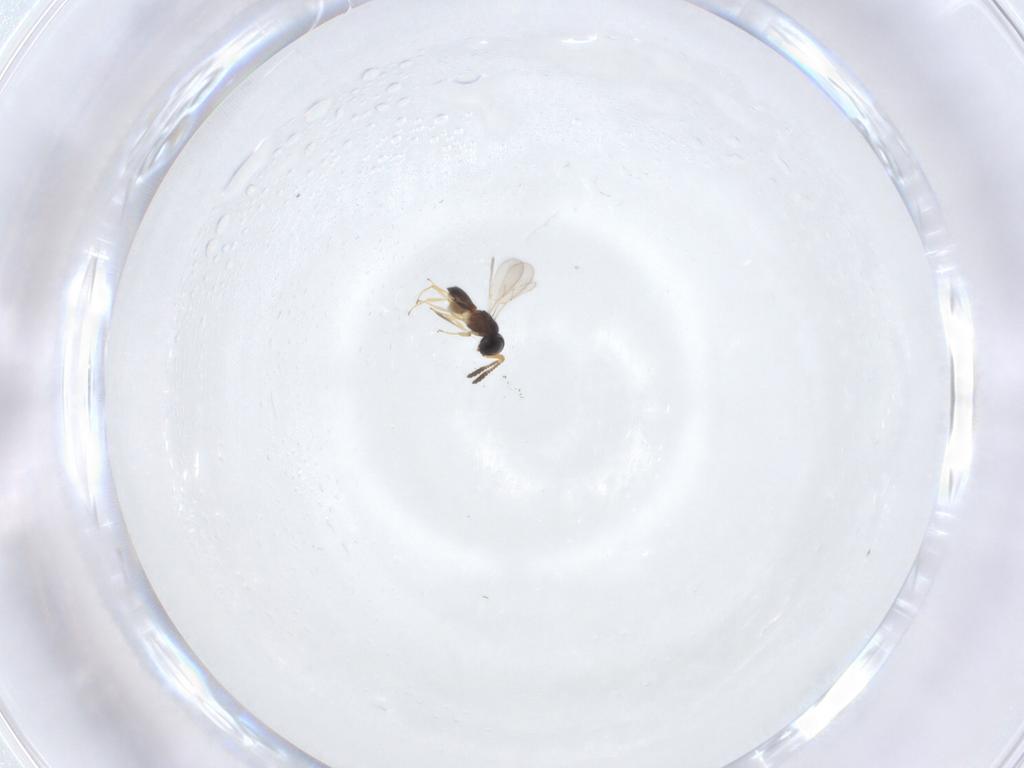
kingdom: Animalia
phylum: Arthropoda
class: Insecta
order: Hymenoptera
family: Braconidae
